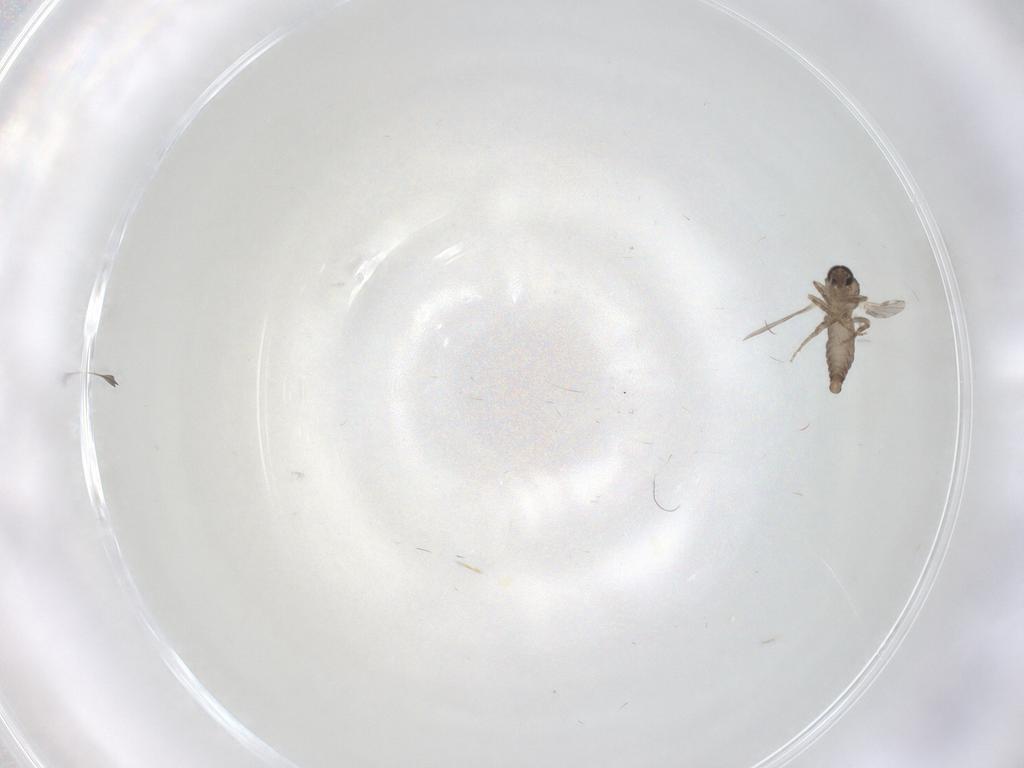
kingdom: Animalia
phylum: Arthropoda
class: Insecta
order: Diptera
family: Ceratopogonidae
